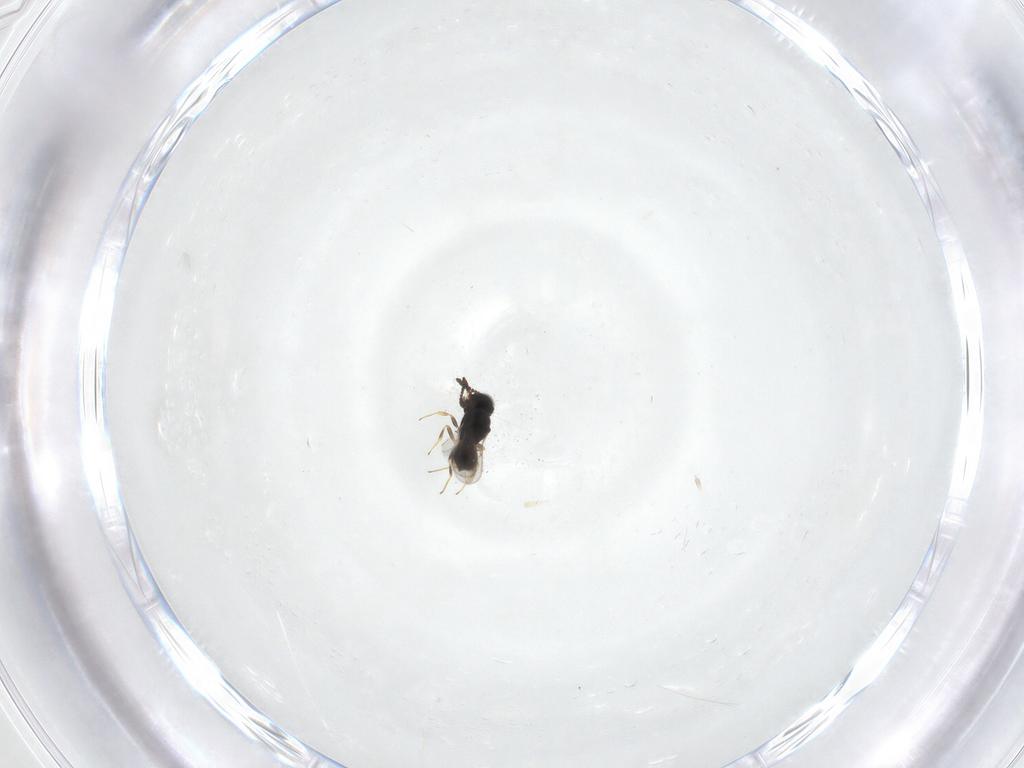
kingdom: Animalia
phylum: Arthropoda
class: Insecta
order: Hymenoptera
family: Scelionidae
